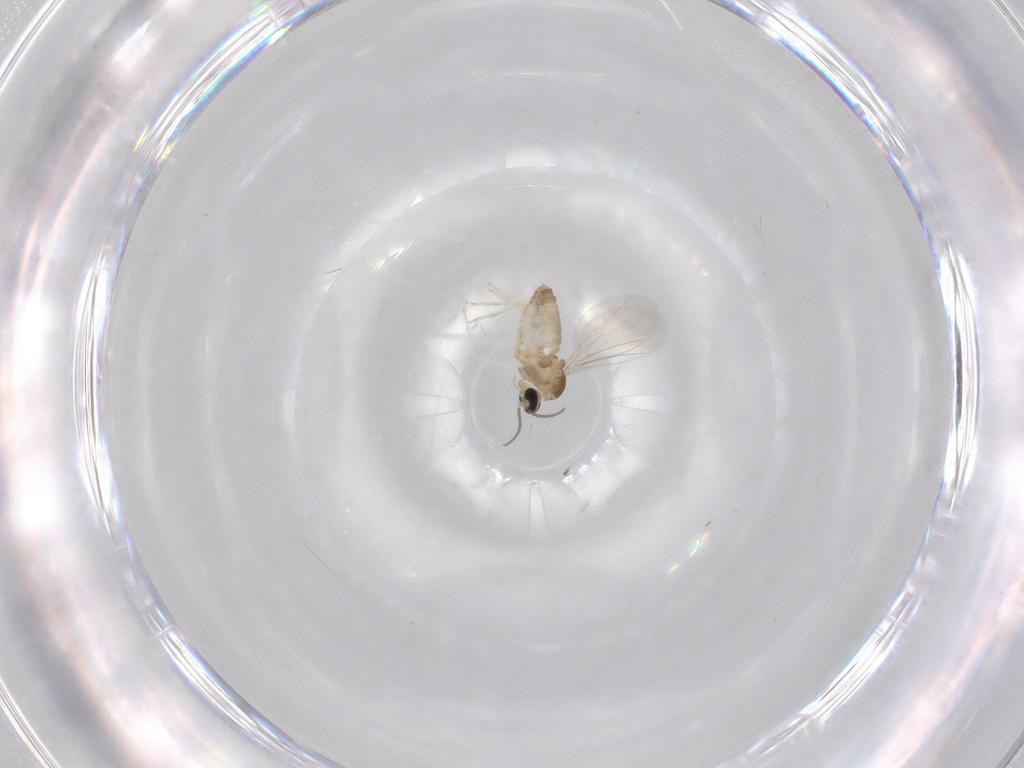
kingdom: Animalia
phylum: Arthropoda
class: Insecta
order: Diptera
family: Cecidomyiidae
